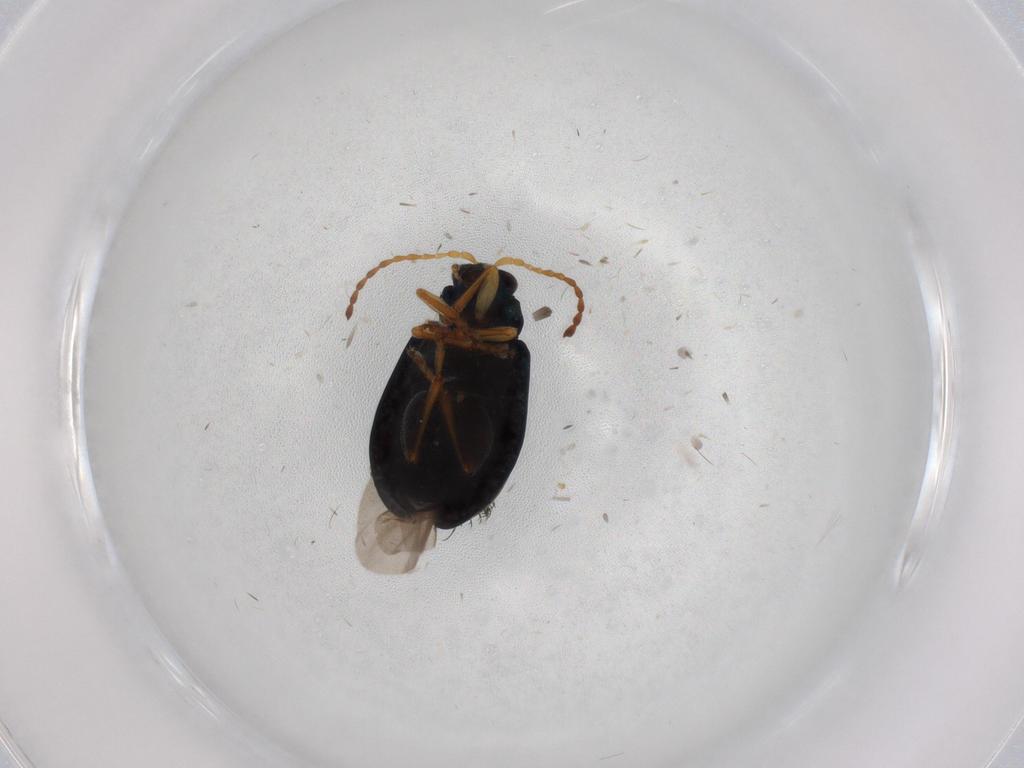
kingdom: Animalia
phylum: Arthropoda
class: Insecta
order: Coleoptera
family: Chrysomelidae
